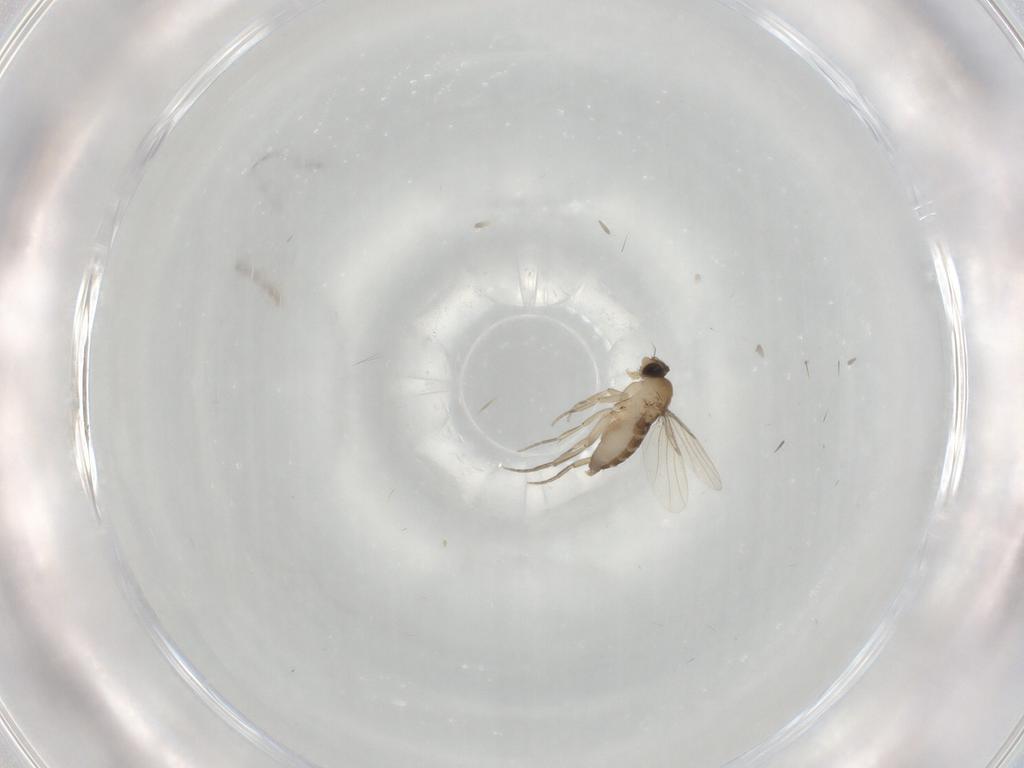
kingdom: Animalia
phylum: Arthropoda
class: Insecta
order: Diptera
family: Phoridae
